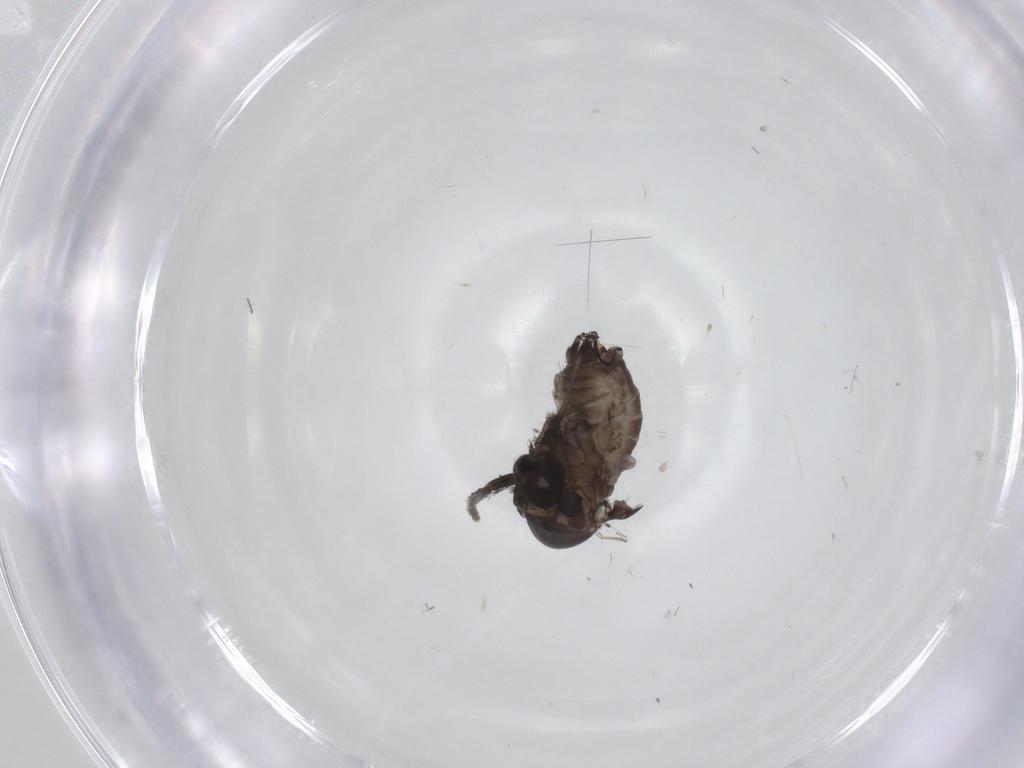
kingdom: Animalia
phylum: Arthropoda
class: Insecta
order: Diptera
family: Psychodidae
